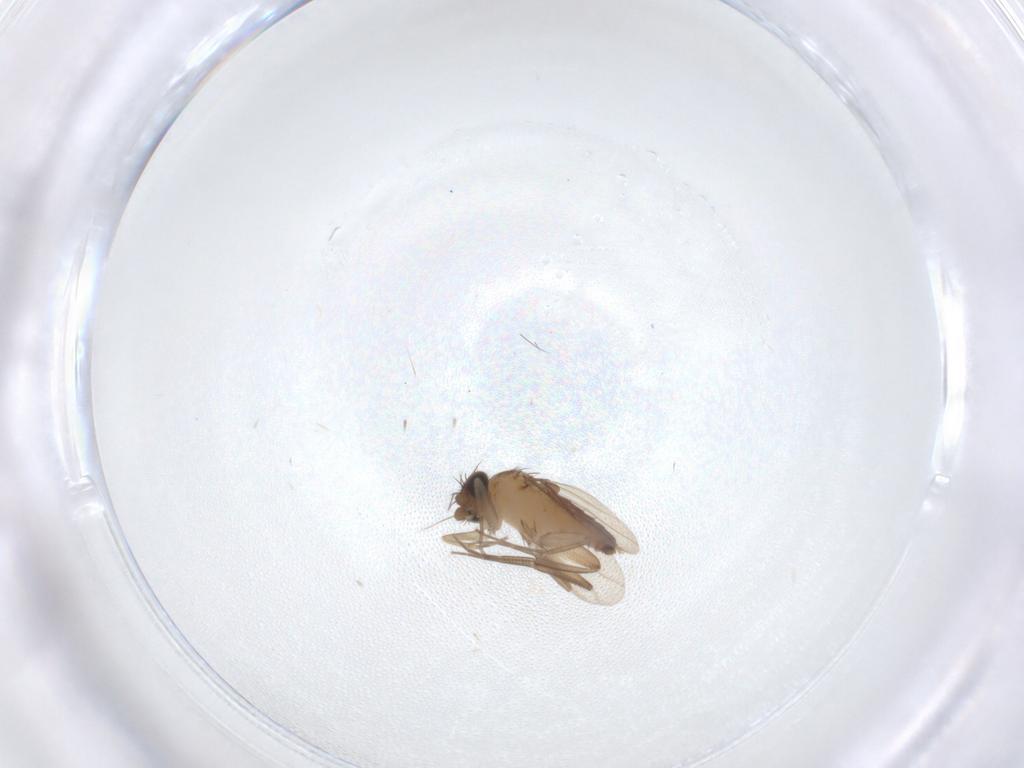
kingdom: Animalia
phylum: Arthropoda
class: Insecta
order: Diptera
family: Phoridae
